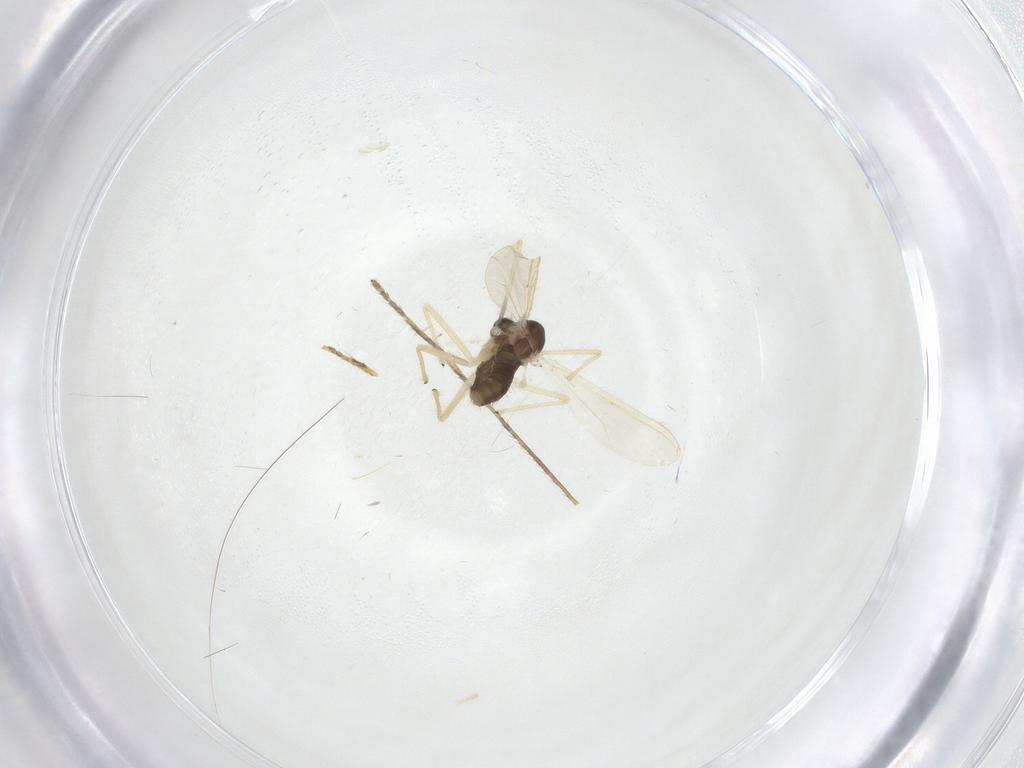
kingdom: Animalia
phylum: Arthropoda
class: Insecta
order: Diptera
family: Chironomidae
